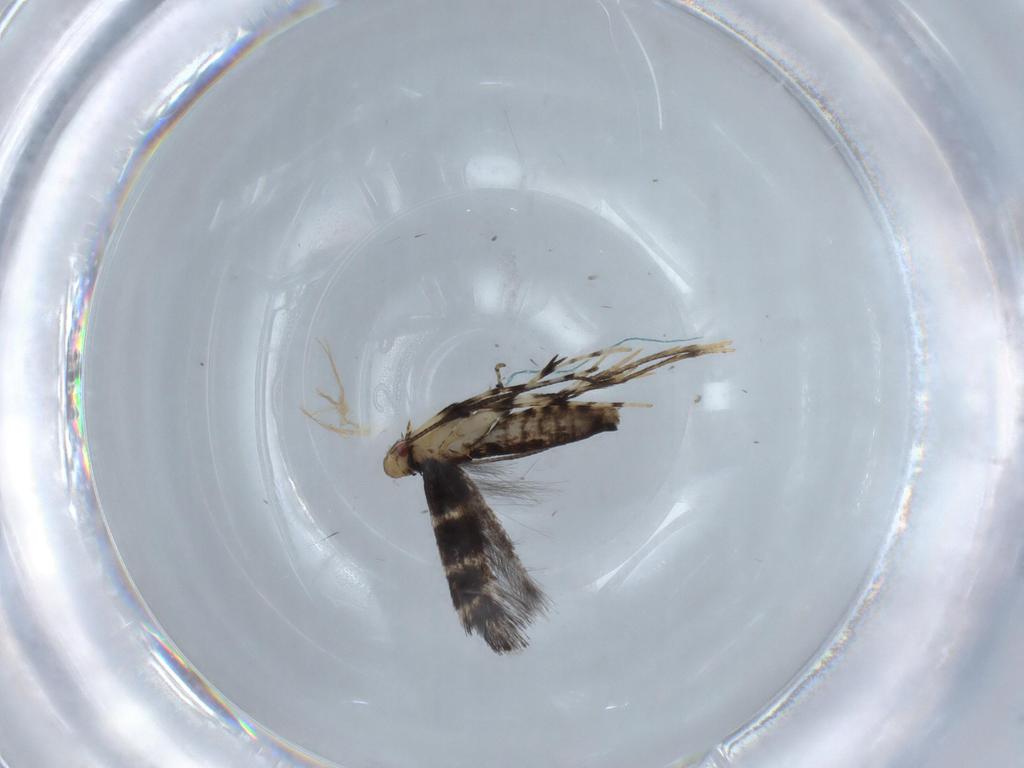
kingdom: Animalia
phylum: Arthropoda
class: Insecta
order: Lepidoptera
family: Gracillariidae
